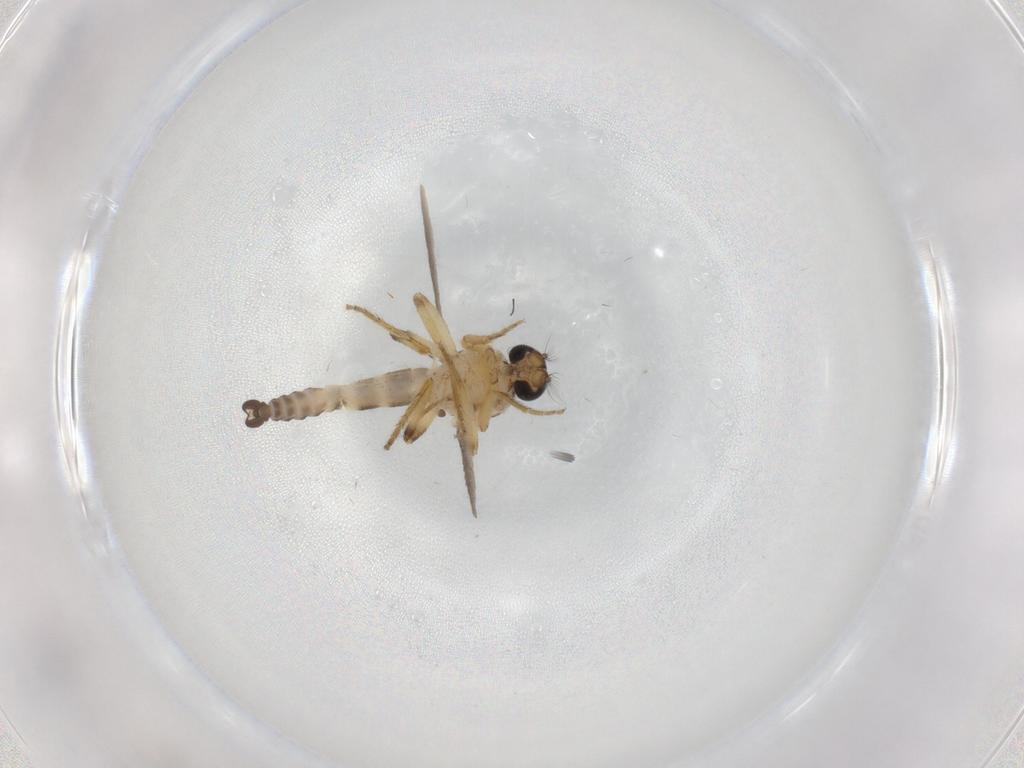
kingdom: Animalia
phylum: Arthropoda
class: Insecta
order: Diptera
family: Ceratopogonidae
